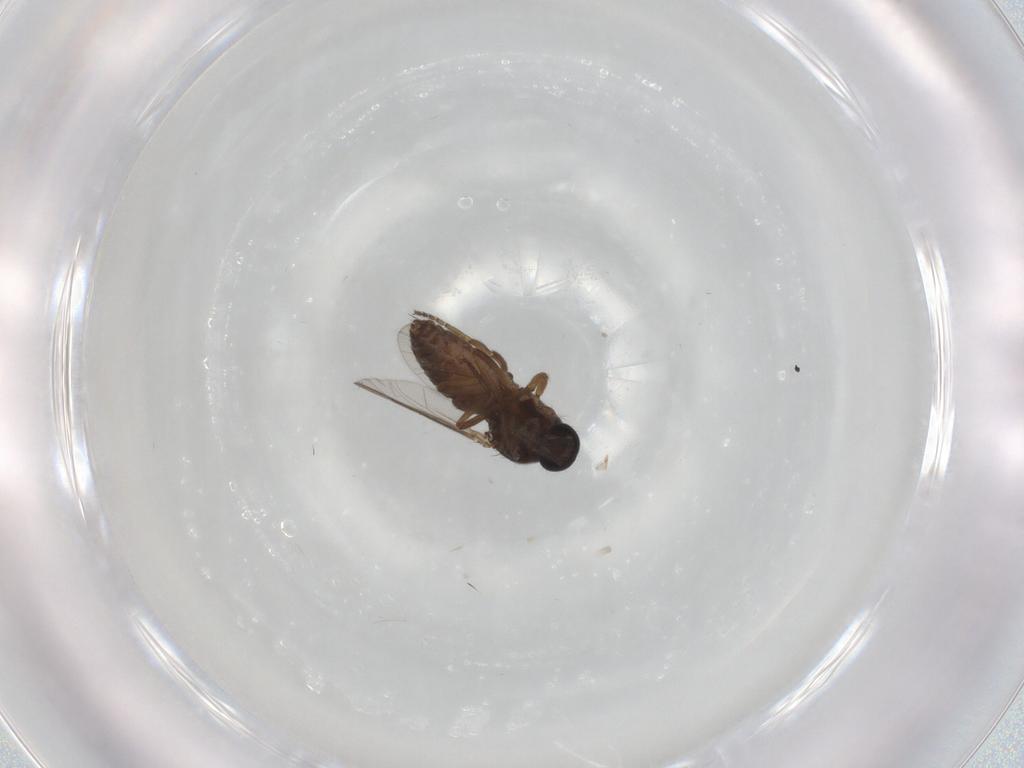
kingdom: Animalia
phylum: Arthropoda
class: Insecta
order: Diptera
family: Ceratopogonidae
